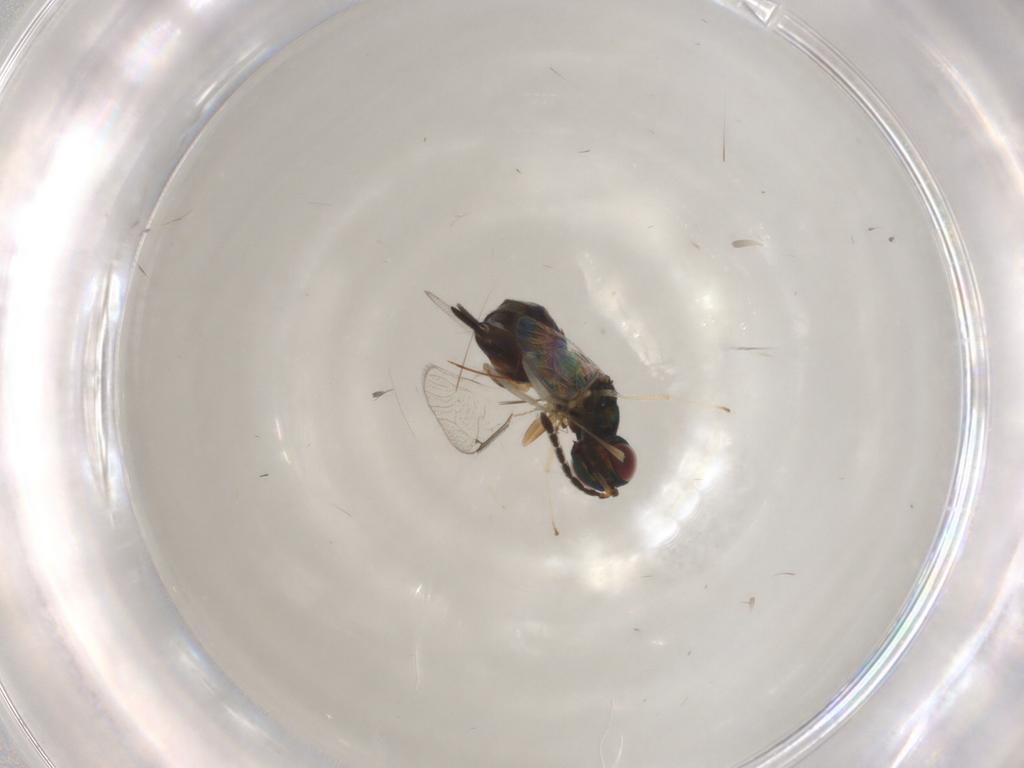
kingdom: Animalia
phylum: Arthropoda
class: Insecta
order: Hymenoptera
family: Eulophidae
